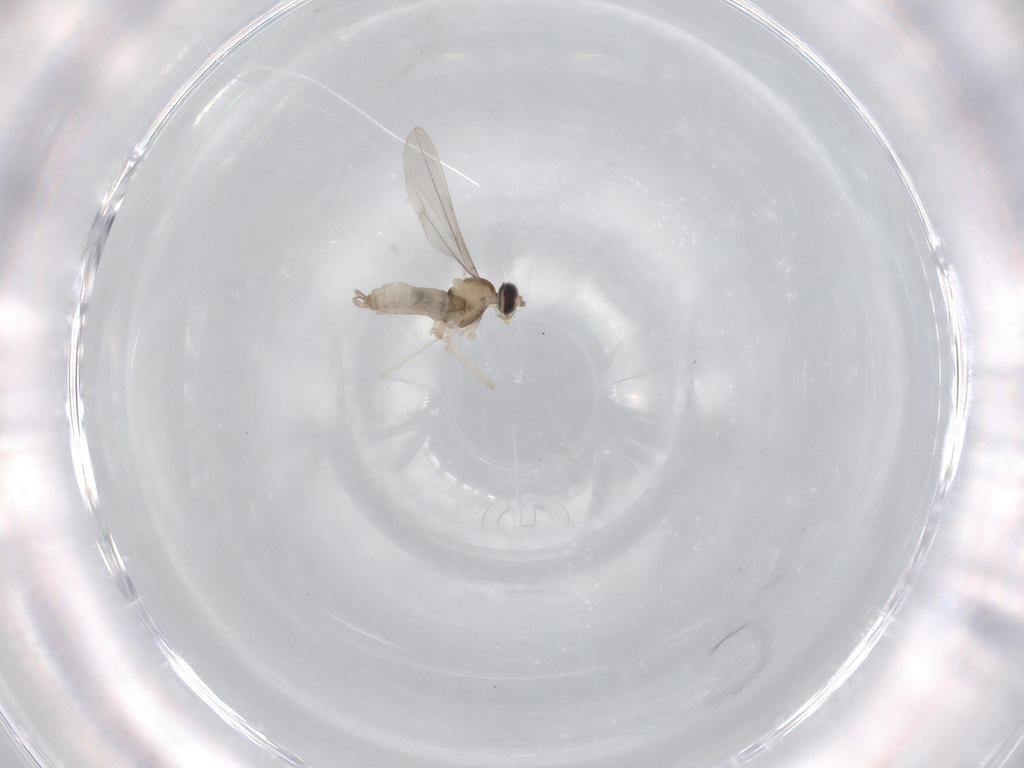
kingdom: Animalia
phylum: Arthropoda
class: Insecta
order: Diptera
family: Cecidomyiidae
